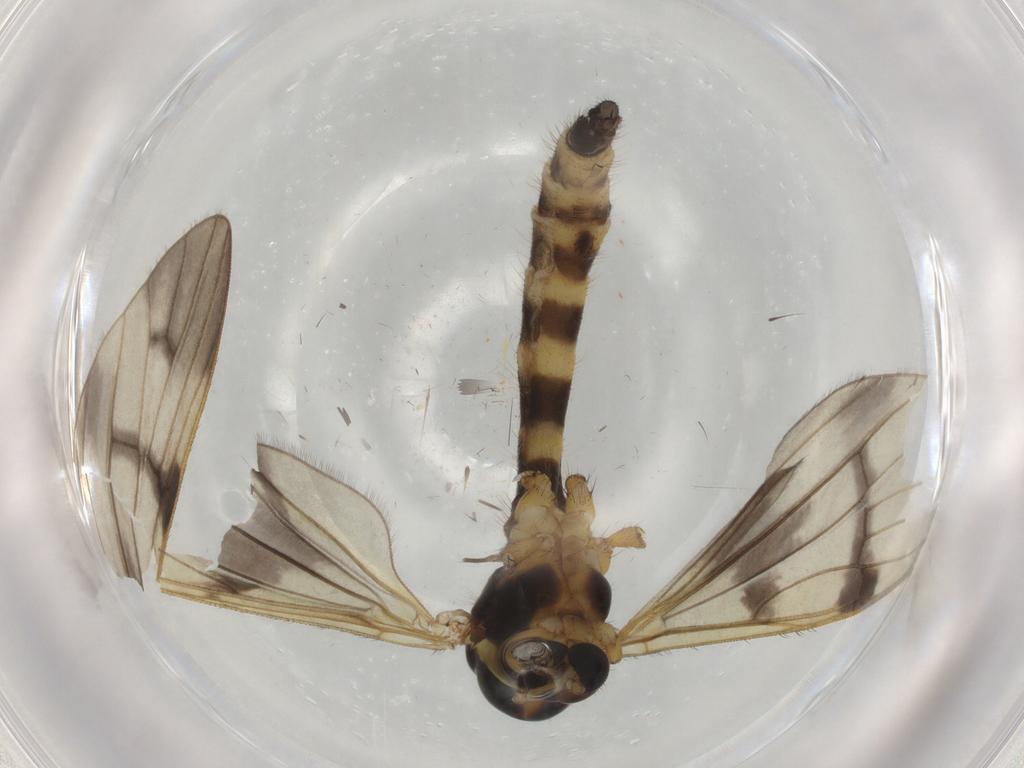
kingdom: Animalia
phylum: Arthropoda
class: Insecta
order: Diptera
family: Limoniidae
